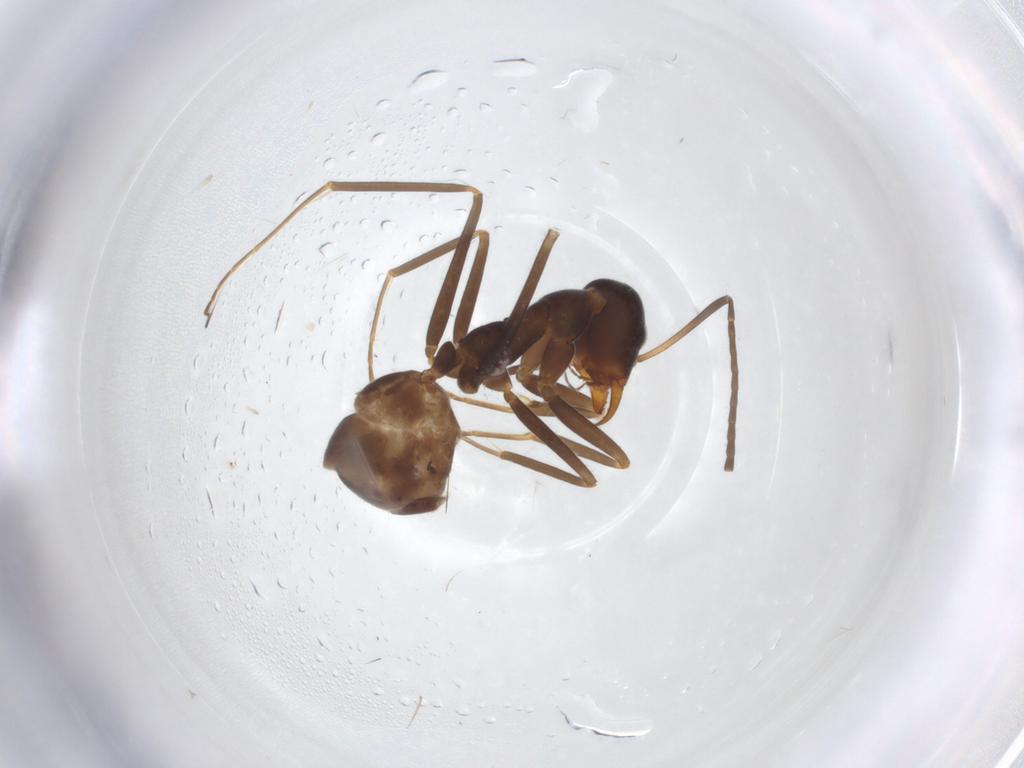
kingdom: Animalia
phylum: Arthropoda
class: Insecta
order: Hymenoptera
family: Formicidae
